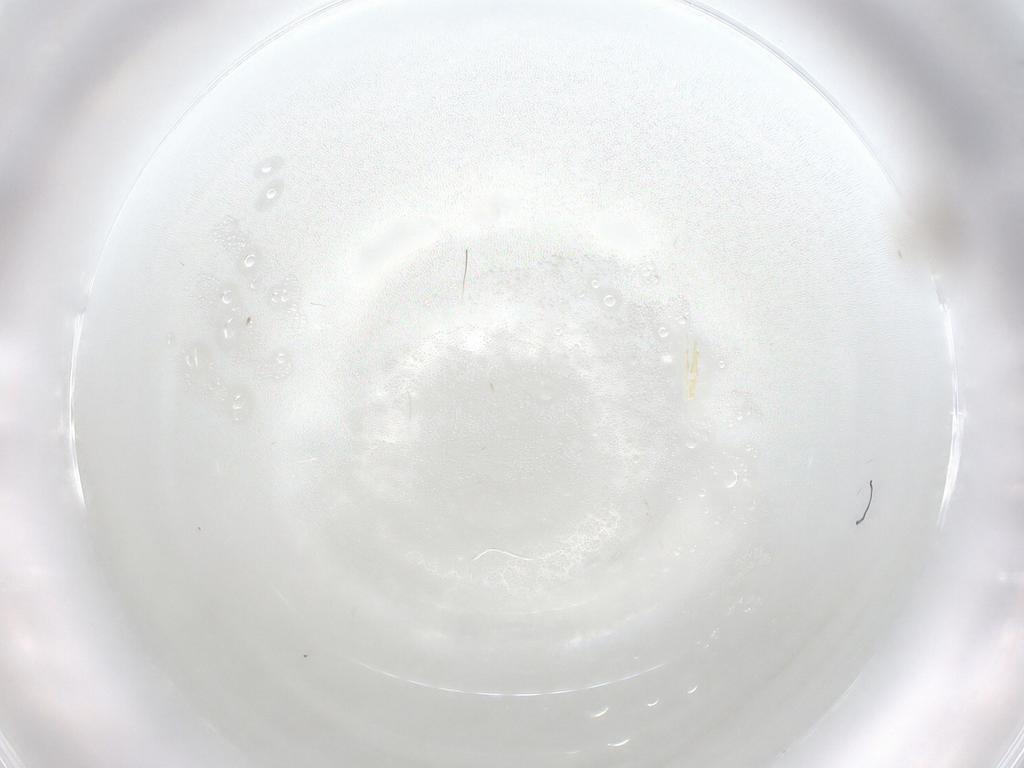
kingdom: Animalia
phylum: Arthropoda
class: Insecta
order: Diptera
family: Cecidomyiidae
